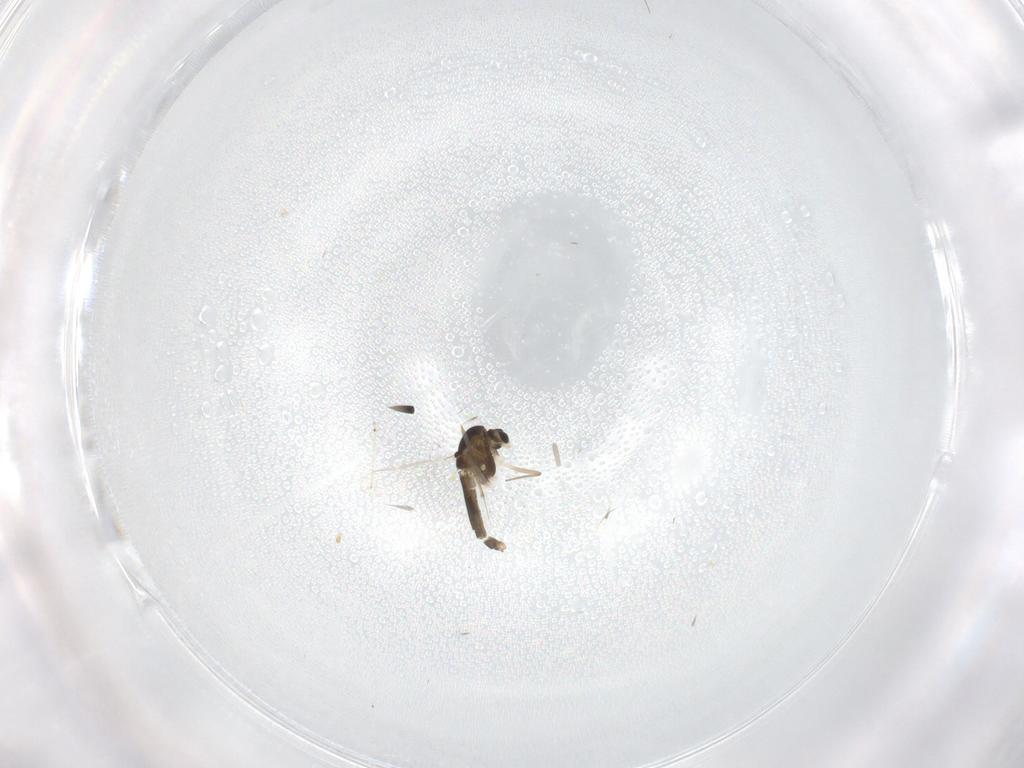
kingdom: Animalia
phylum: Arthropoda
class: Insecta
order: Diptera
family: Chironomidae
